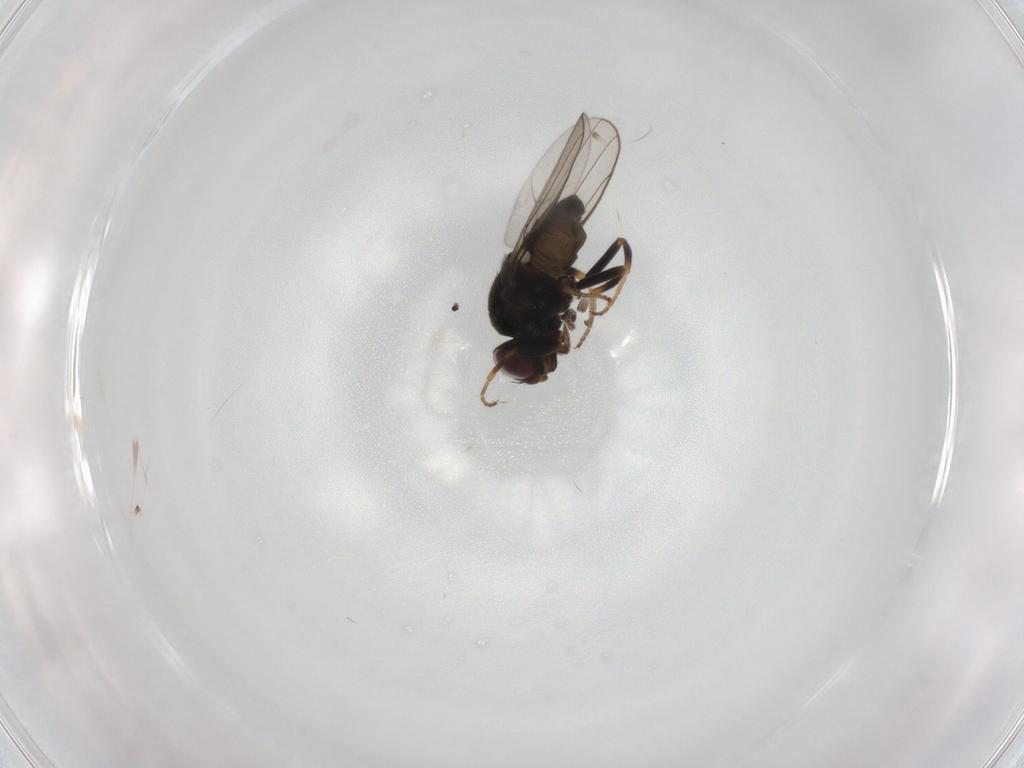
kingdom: Animalia
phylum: Arthropoda
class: Insecta
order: Diptera
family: Chloropidae
